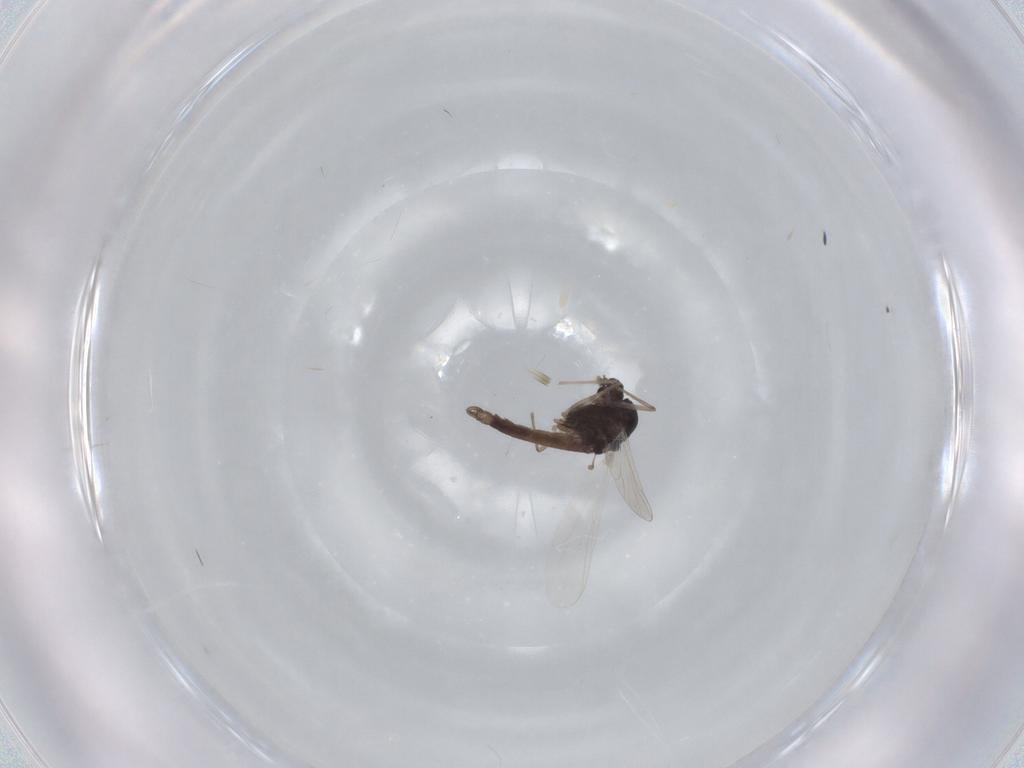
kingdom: Animalia
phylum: Arthropoda
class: Insecta
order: Diptera
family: Chironomidae
